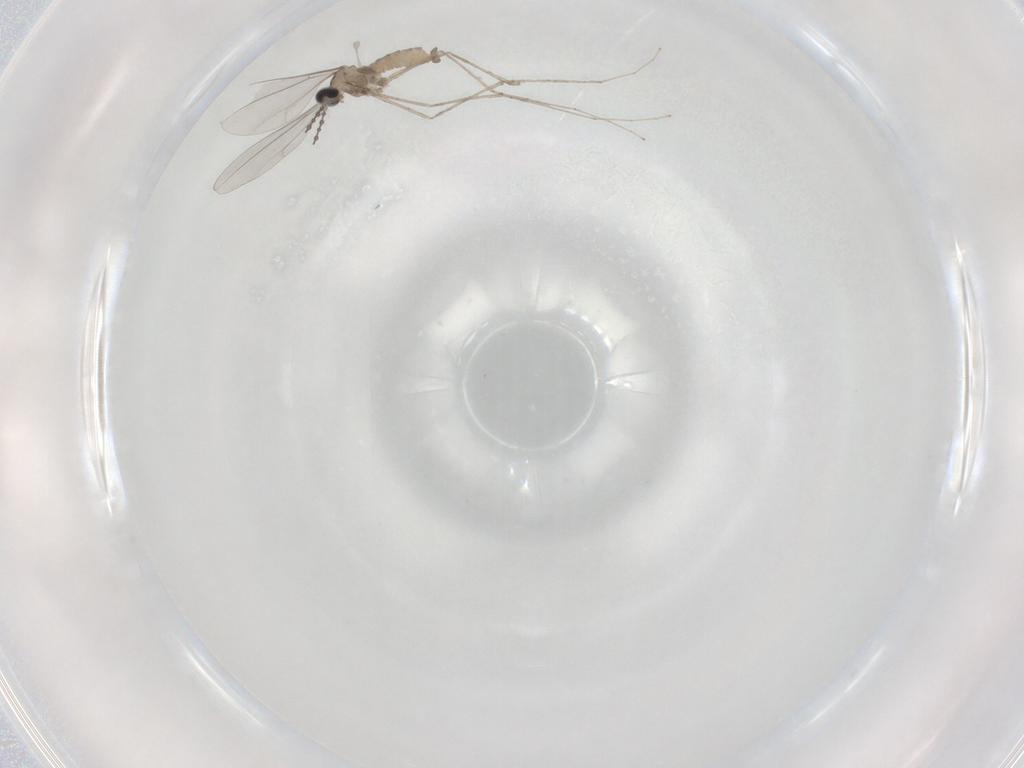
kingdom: Animalia
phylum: Arthropoda
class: Insecta
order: Diptera
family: Cecidomyiidae
